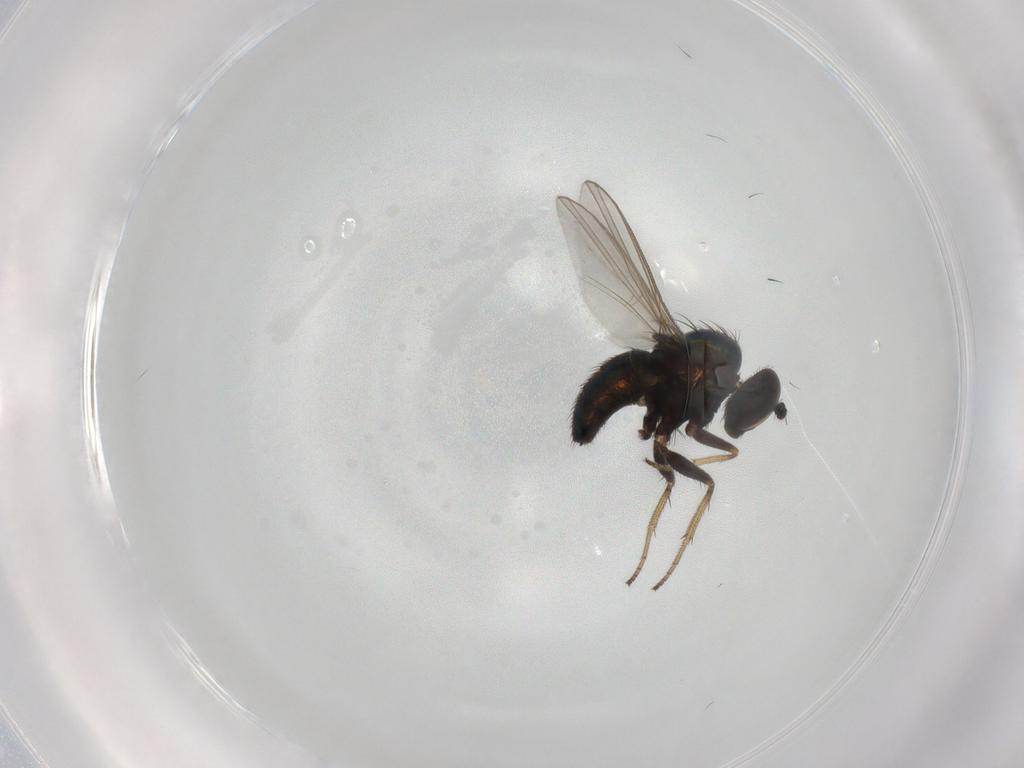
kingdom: Animalia
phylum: Arthropoda
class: Insecta
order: Diptera
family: Dolichopodidae
